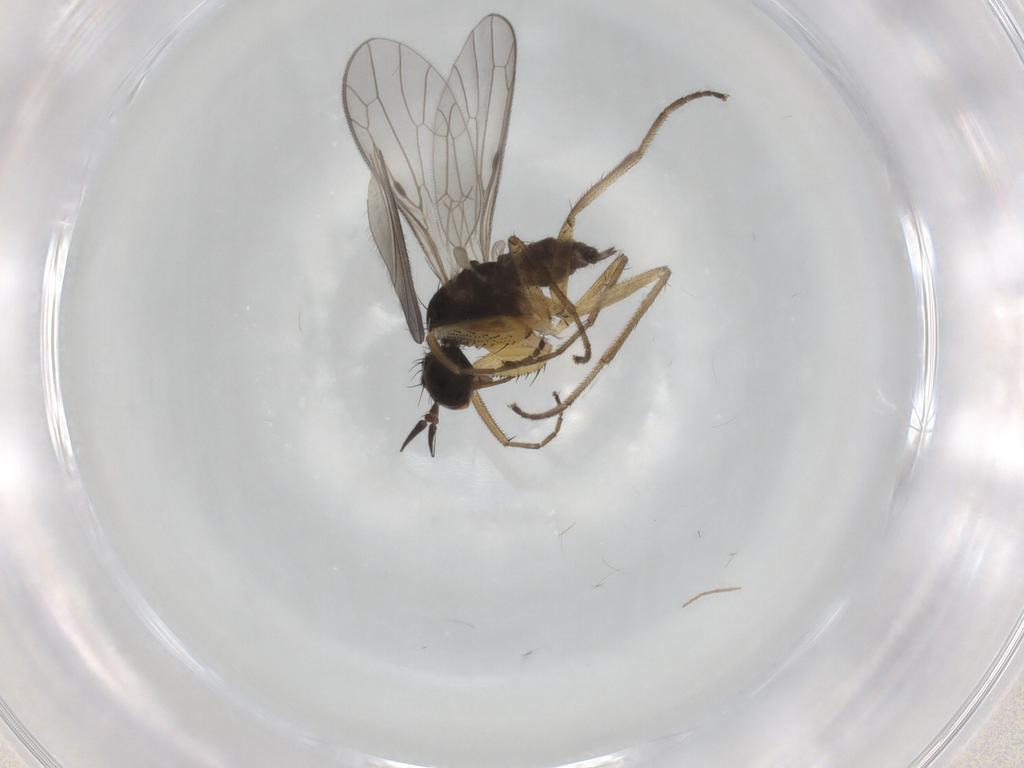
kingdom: Animalia
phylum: Arthropoda
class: Insecta
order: Diptera
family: Chironomidae
